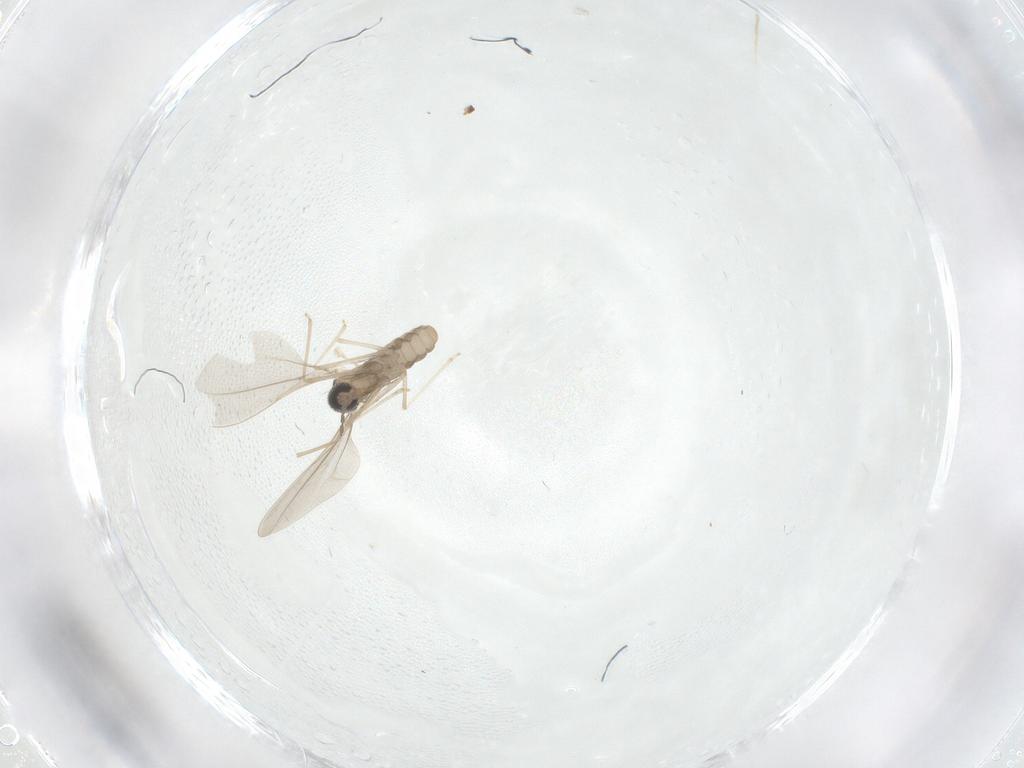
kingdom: Animalia
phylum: Arthropoda
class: Insecta
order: Diptera
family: Cecidomyiidae
